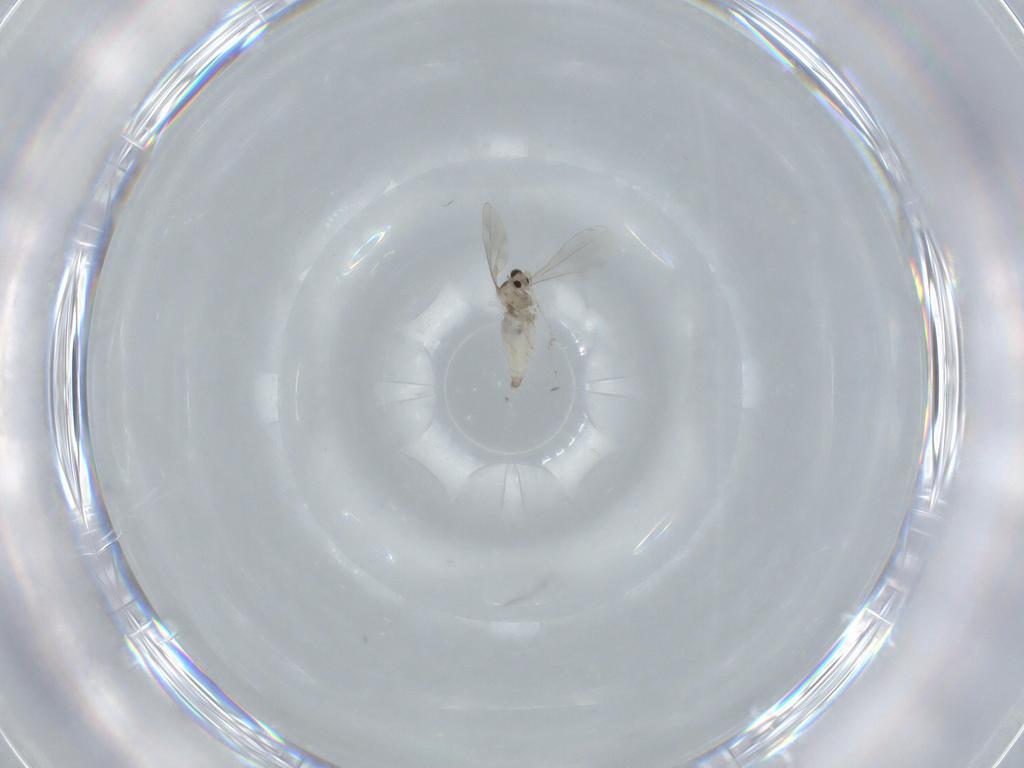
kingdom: Animalia
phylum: Arthropoda
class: Insecta
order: Diptera
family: Cecidomyiidae
